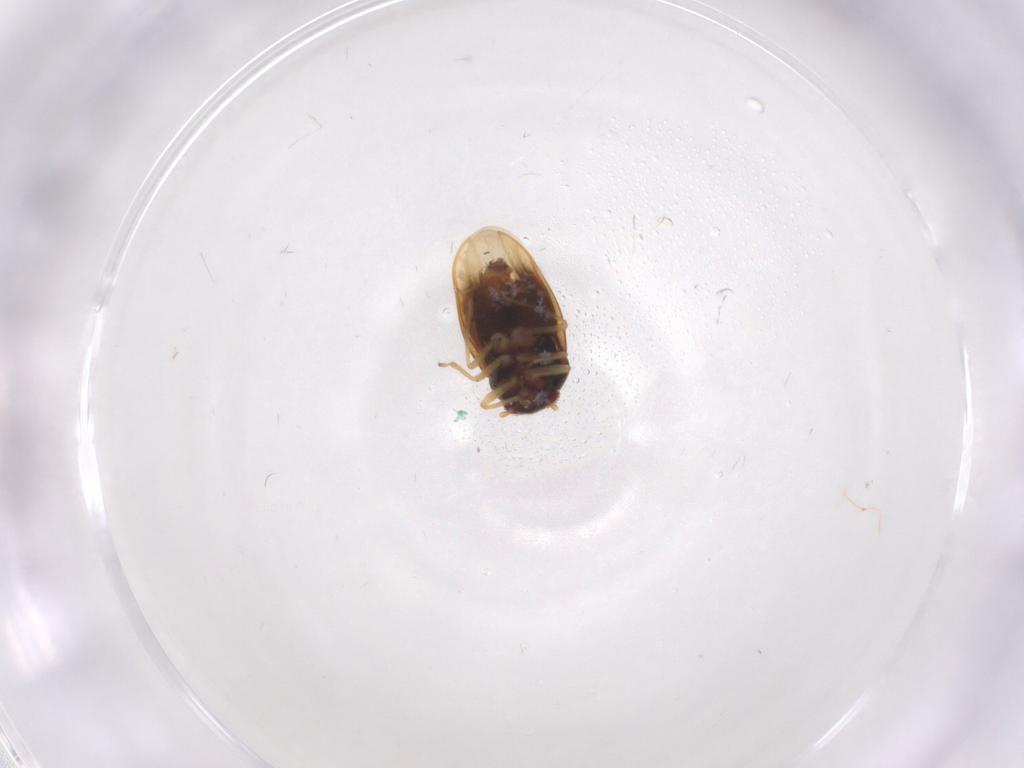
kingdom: Animalia
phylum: Arthropoda
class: Insecta
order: Hemiptera
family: Schizopteridae
